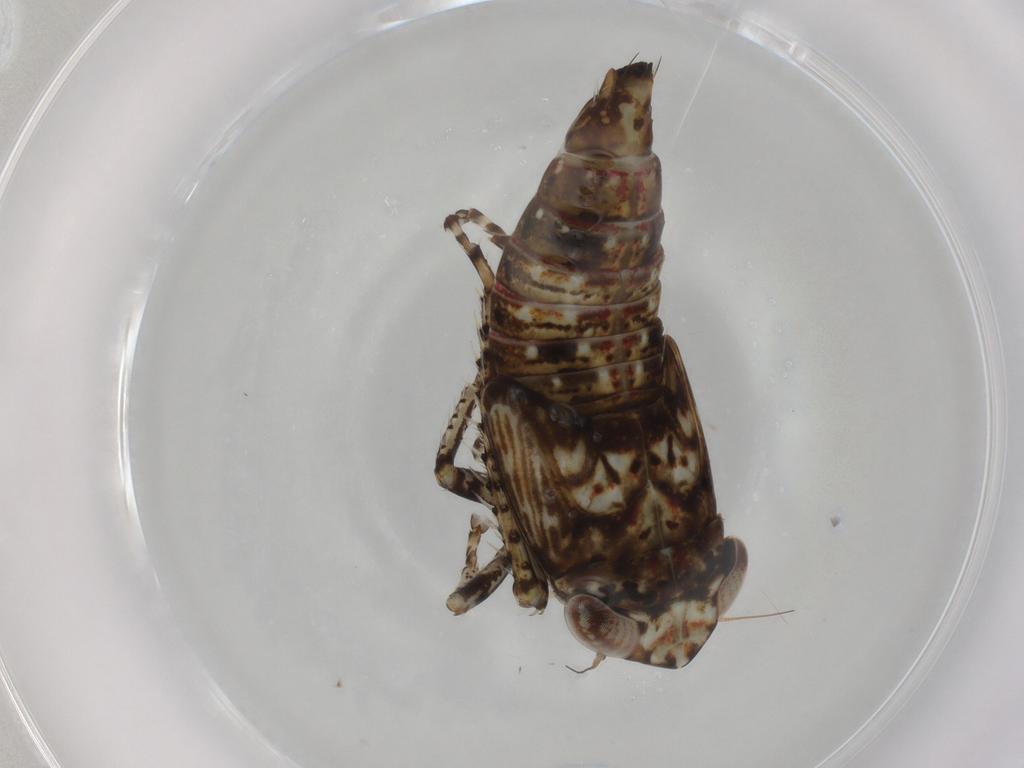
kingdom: Animalia
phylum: Arthropoda
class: Insecta
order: Hemiptera
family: Cicadellidae
